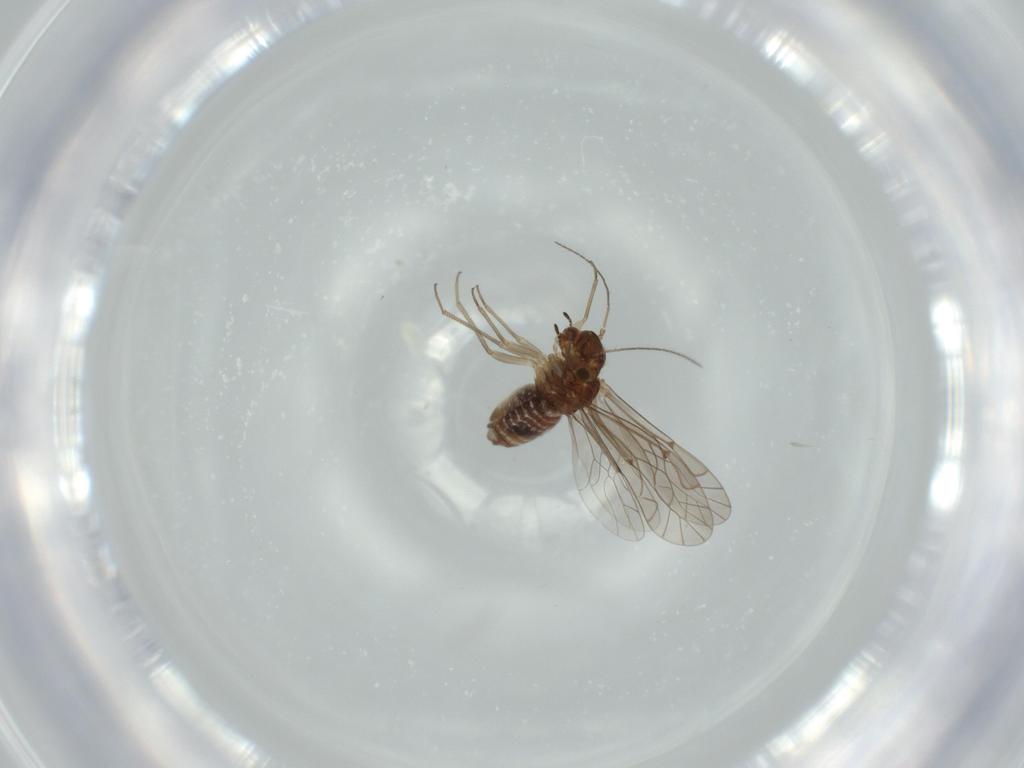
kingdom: Animalia
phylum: Arthropoda
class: Insecta
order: Psocodea
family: Lachesillidae
